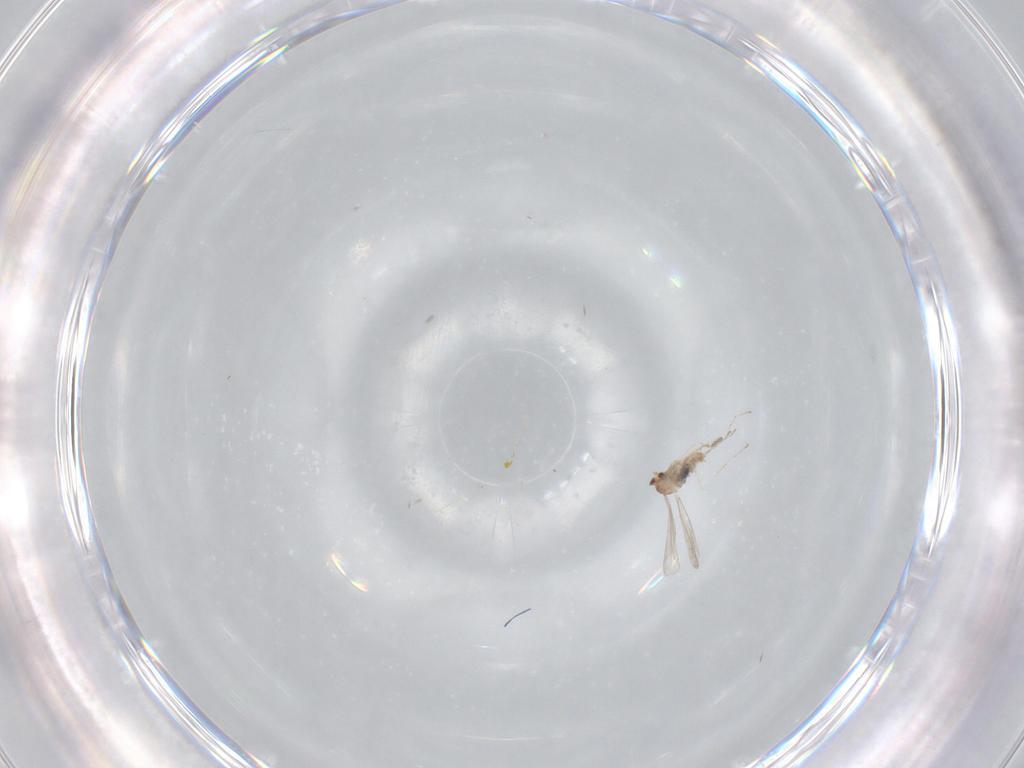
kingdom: Animalia
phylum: Arthropoda
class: Insecta
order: Diptera
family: Cecidomyiidae
